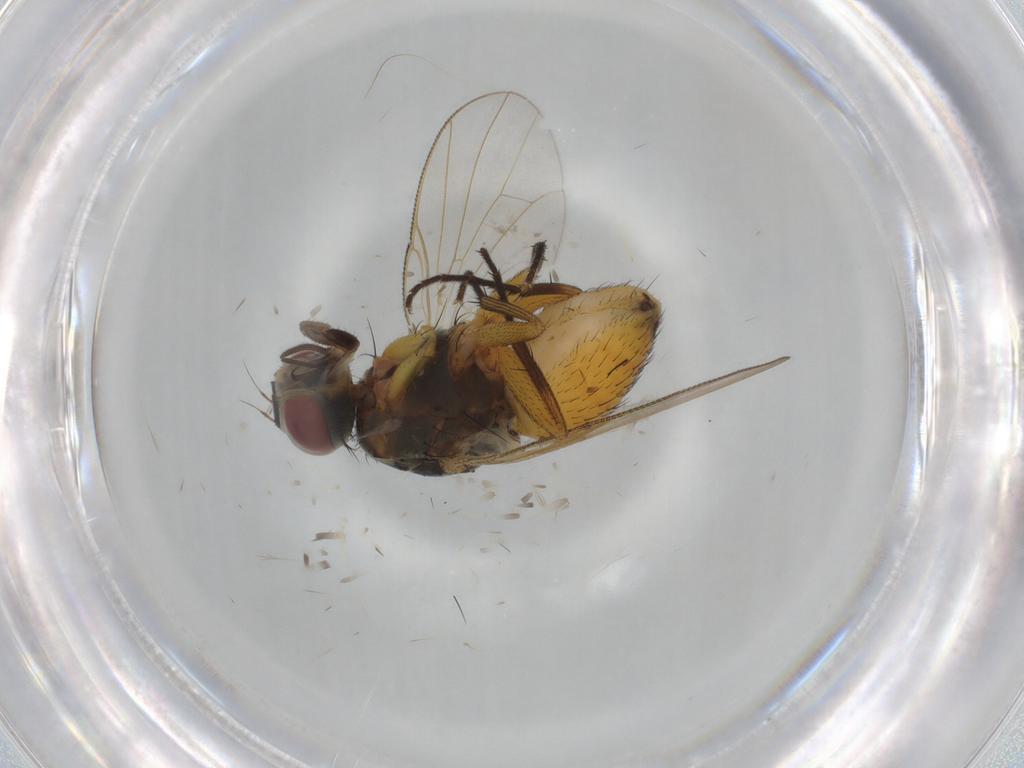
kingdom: Animalia
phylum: Arthropoda
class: Insecta
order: Diptera
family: Muscidae
